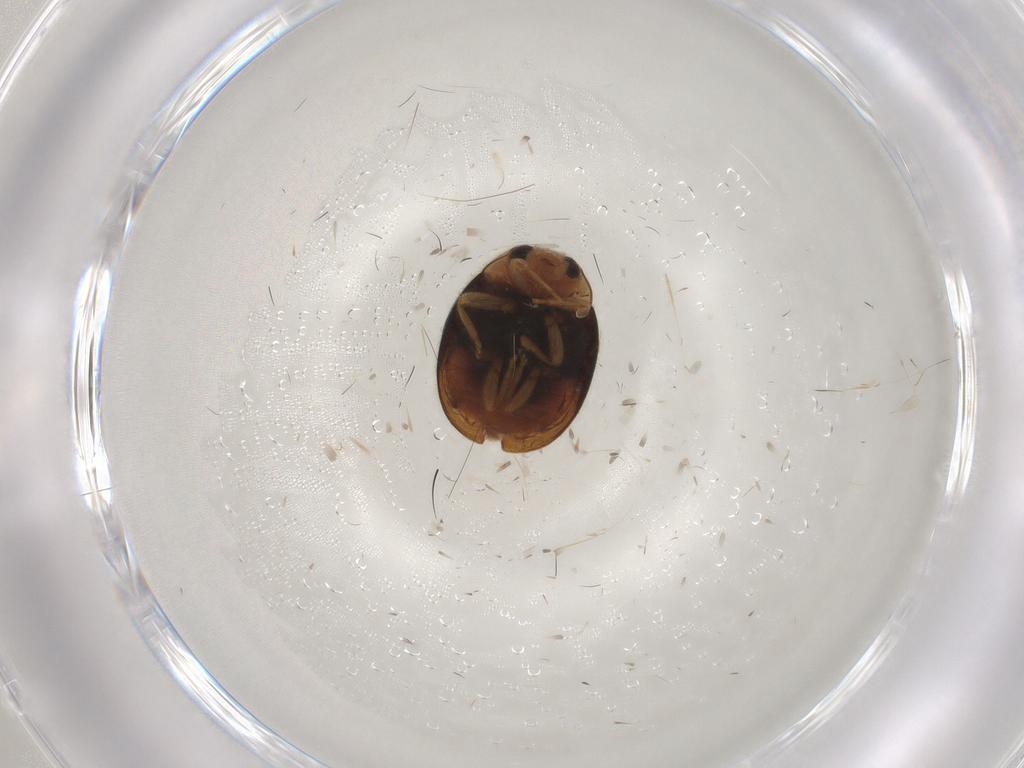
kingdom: Animalia
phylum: Arthropoda
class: Insecta
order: Coleoptera
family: Coccinellidae
